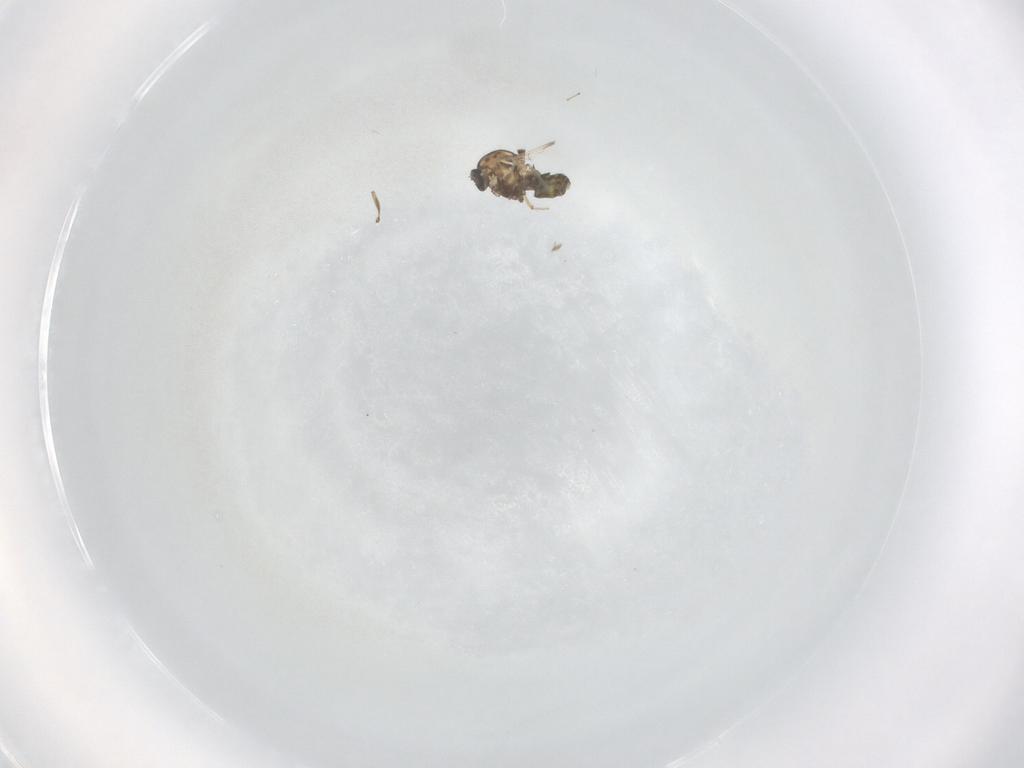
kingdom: Animalia
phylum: Arthropoda
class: Insecta
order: Diptera
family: Ceratopogonidae
